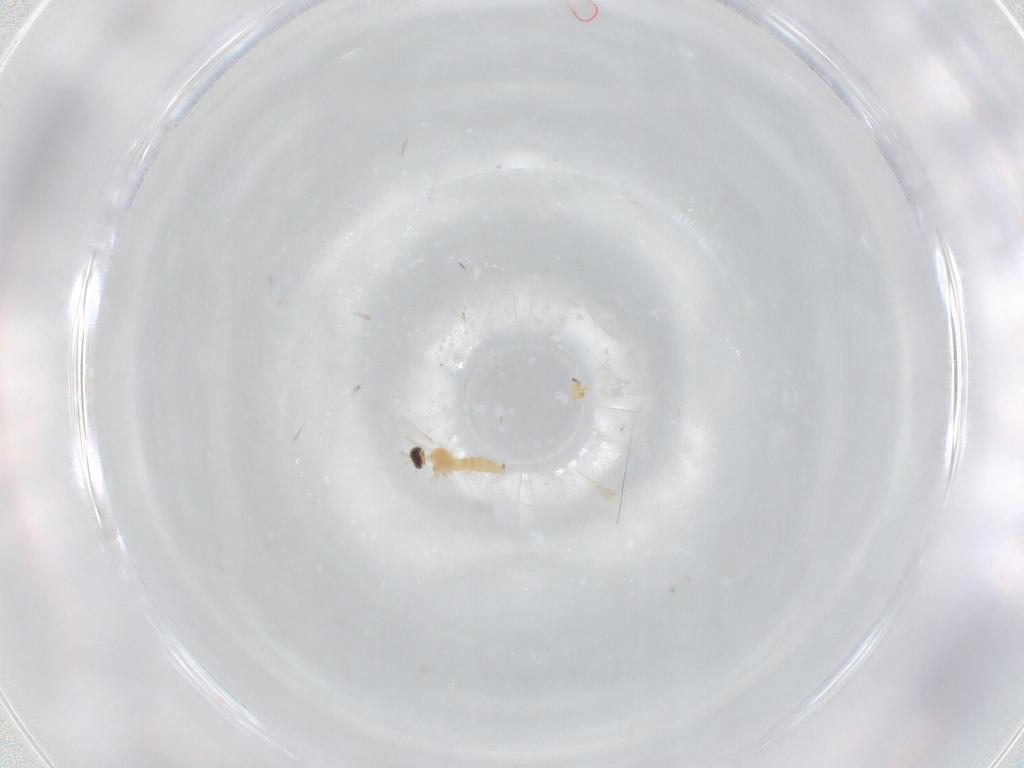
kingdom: Animalia
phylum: Arthropoda
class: Insecta
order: Diptera
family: Cecidomyiidae
